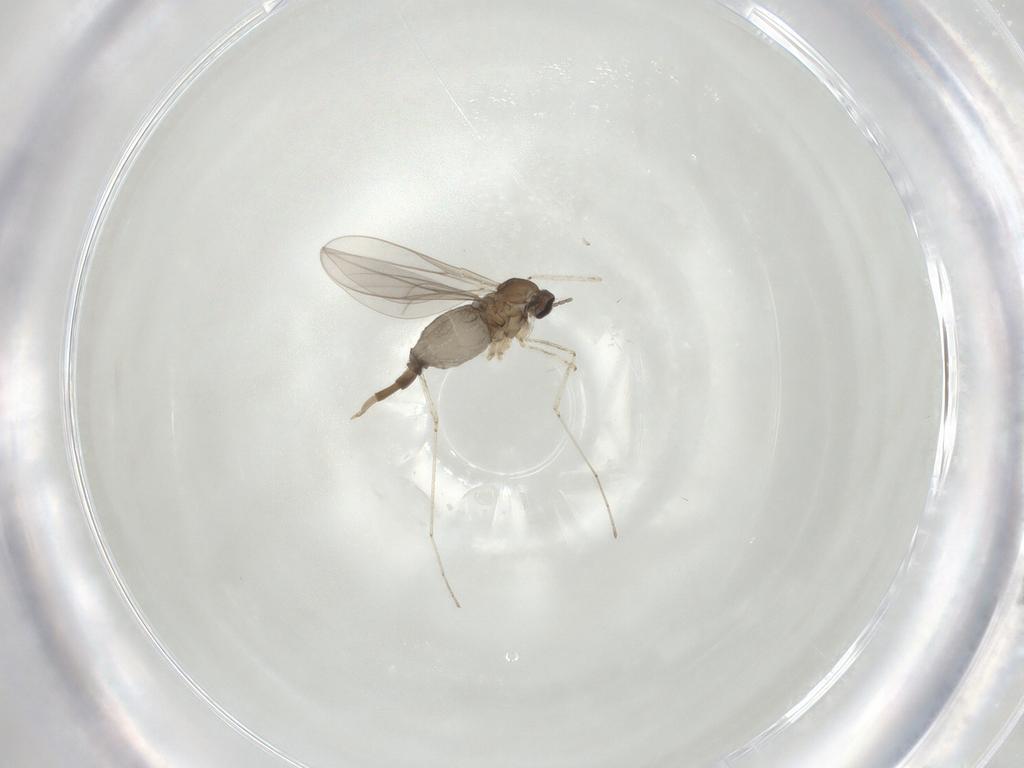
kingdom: Animalia
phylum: Arthropoda
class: Insecta
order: Diptera
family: Cecidomyiidae
